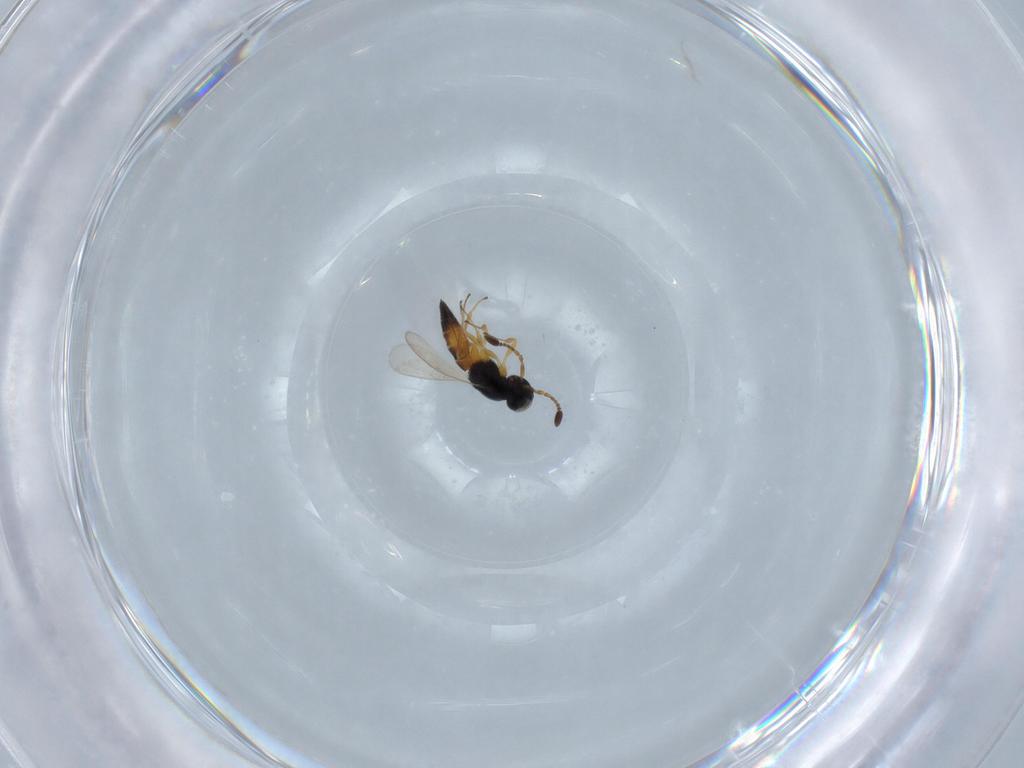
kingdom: Animalia
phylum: Arthropoda
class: Insecta
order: Hymenoptera
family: Scelionidae
